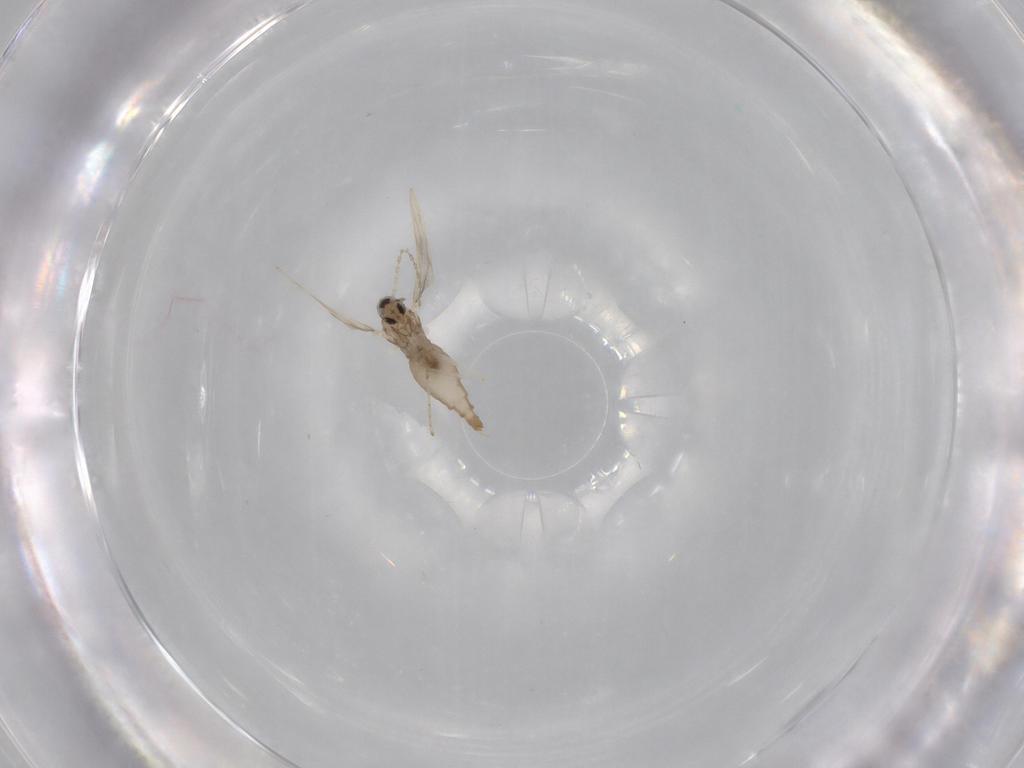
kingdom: Animalia
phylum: Arthropoda
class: Insecta
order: Diptera
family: Cecidomyiidae
